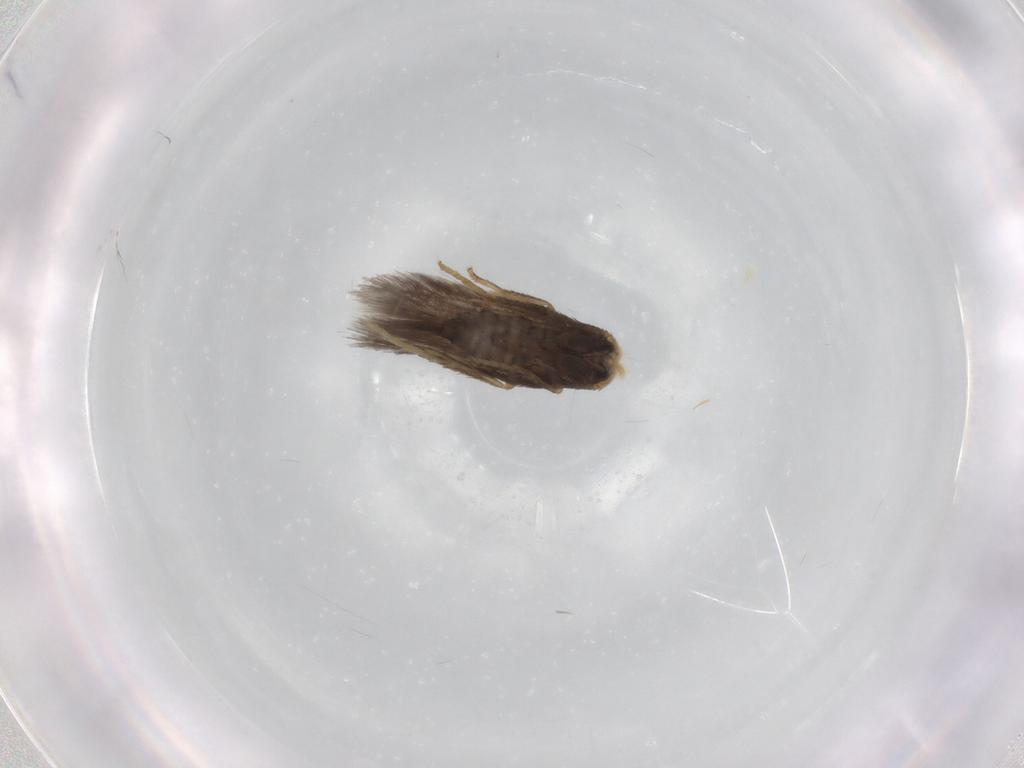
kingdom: Animalia
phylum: Arthropoda
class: Insecta
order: Lepidoptera
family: Nepticulidae
